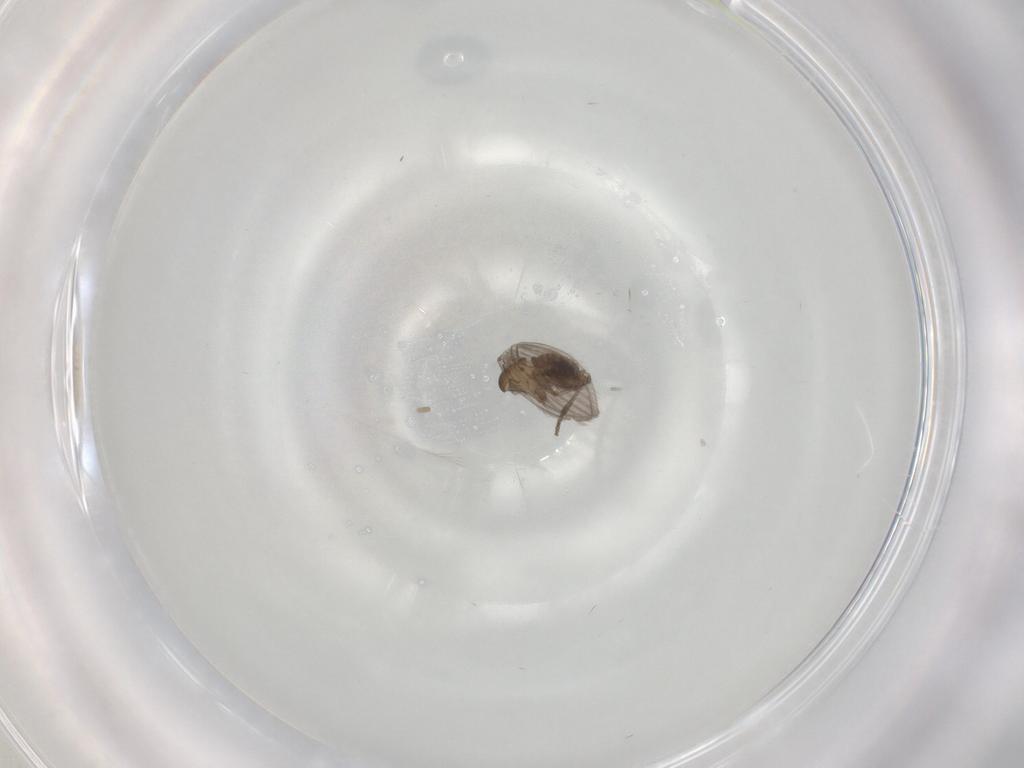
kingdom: Animalia
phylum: Arthropoda
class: Insecta
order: Diptera
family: Psychodidae
